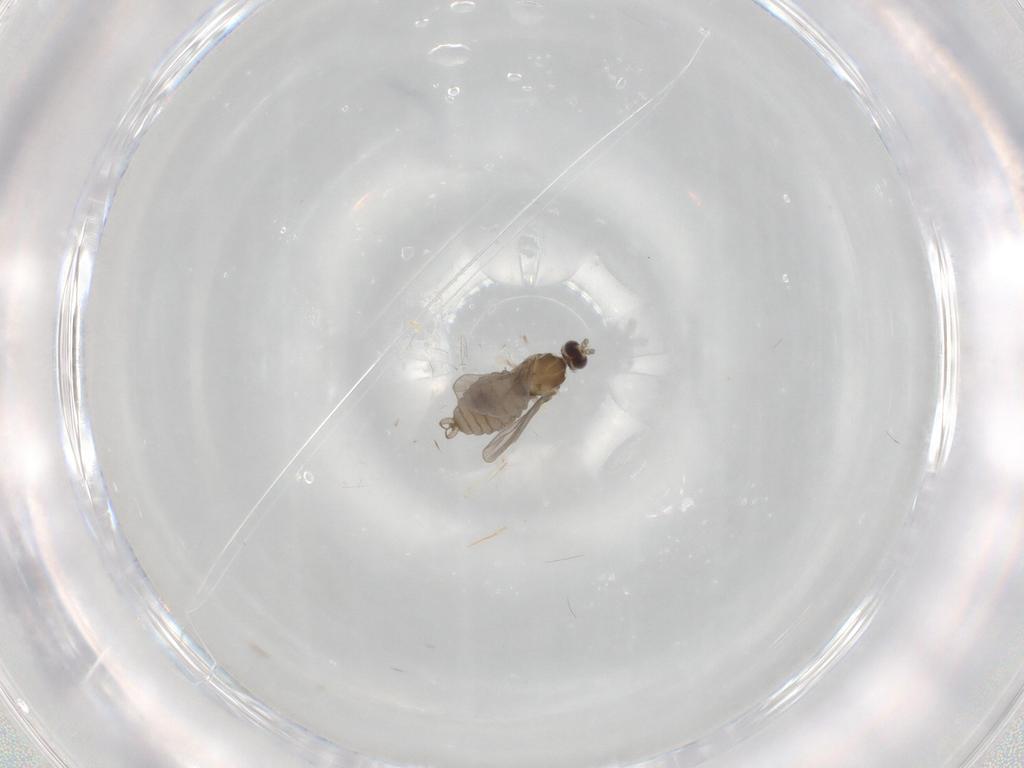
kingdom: Animalia
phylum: Arthropoda
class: Insecta
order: Diptera
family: Cecidomyiidae
